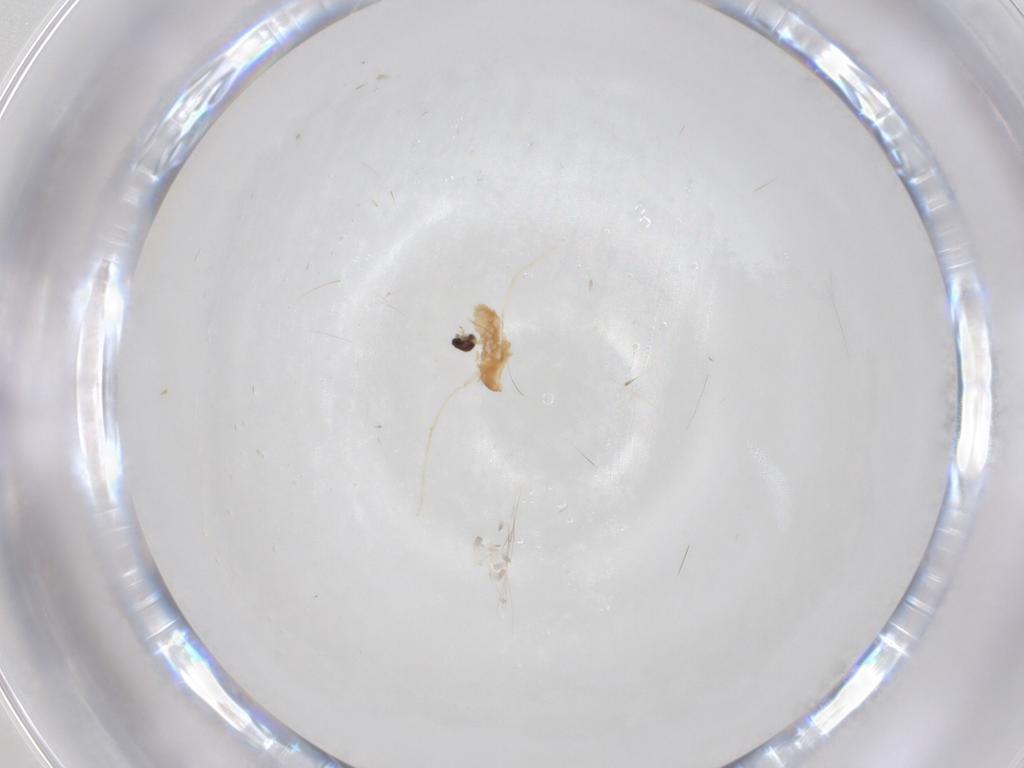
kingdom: Animalia
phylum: Arthropoda
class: Insecta
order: Diptera
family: Cecidomyiidae
